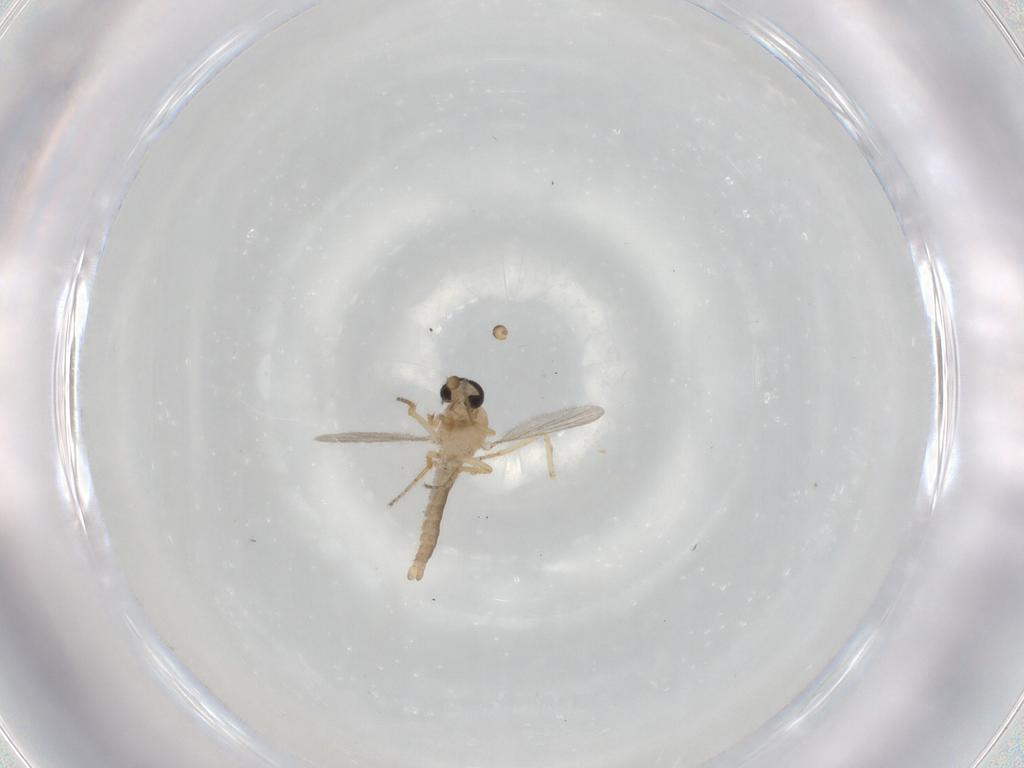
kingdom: Animalia
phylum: Arthropoda
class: Insecta
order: Diptera
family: Ceratopogonidae
